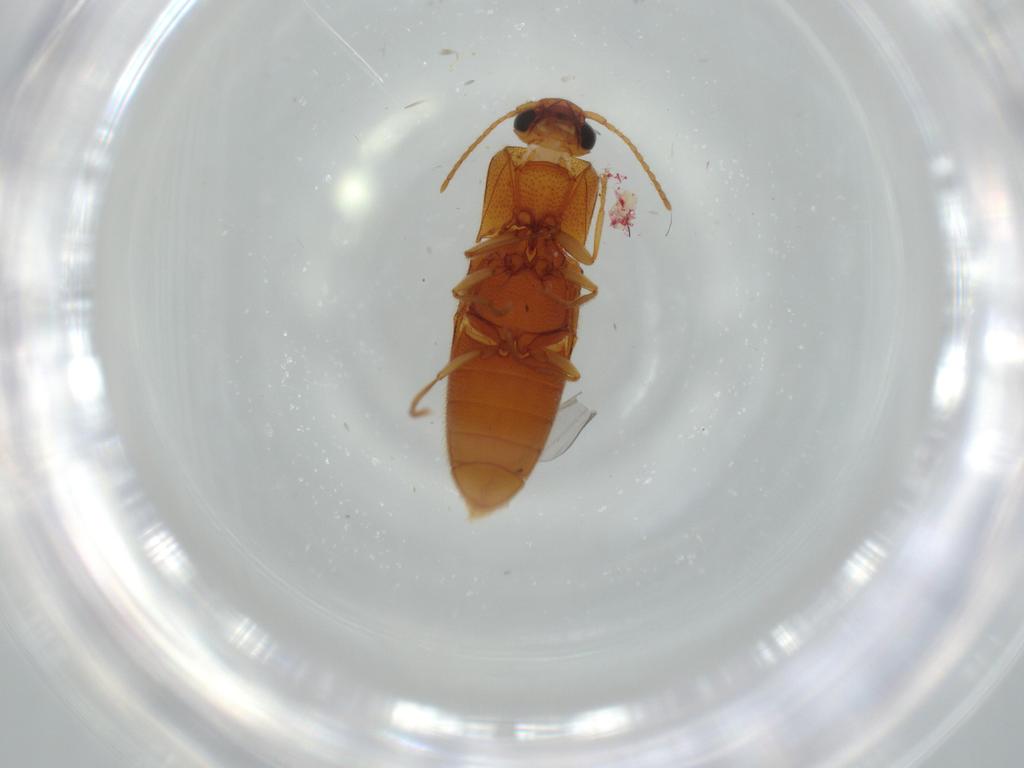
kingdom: Animalia
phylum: Arthropoda
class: Insecta
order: Coleoptera
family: Elateridae
